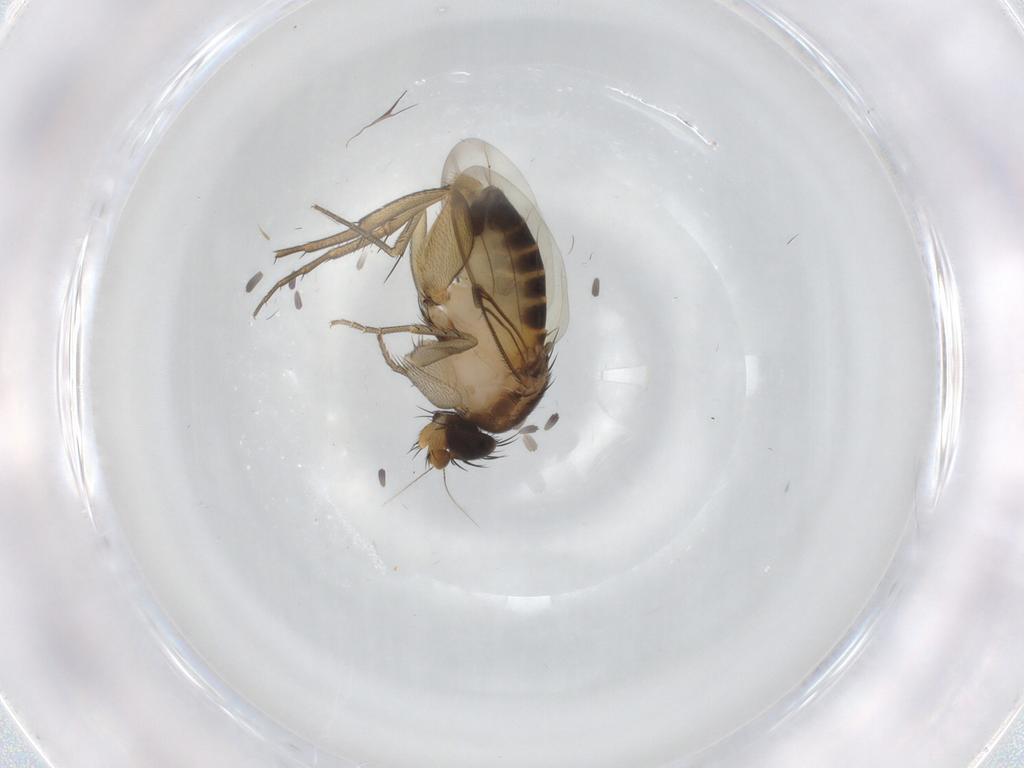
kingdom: Animalia
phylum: Arthropoda
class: Insecta
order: Diptera
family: Phoridae
